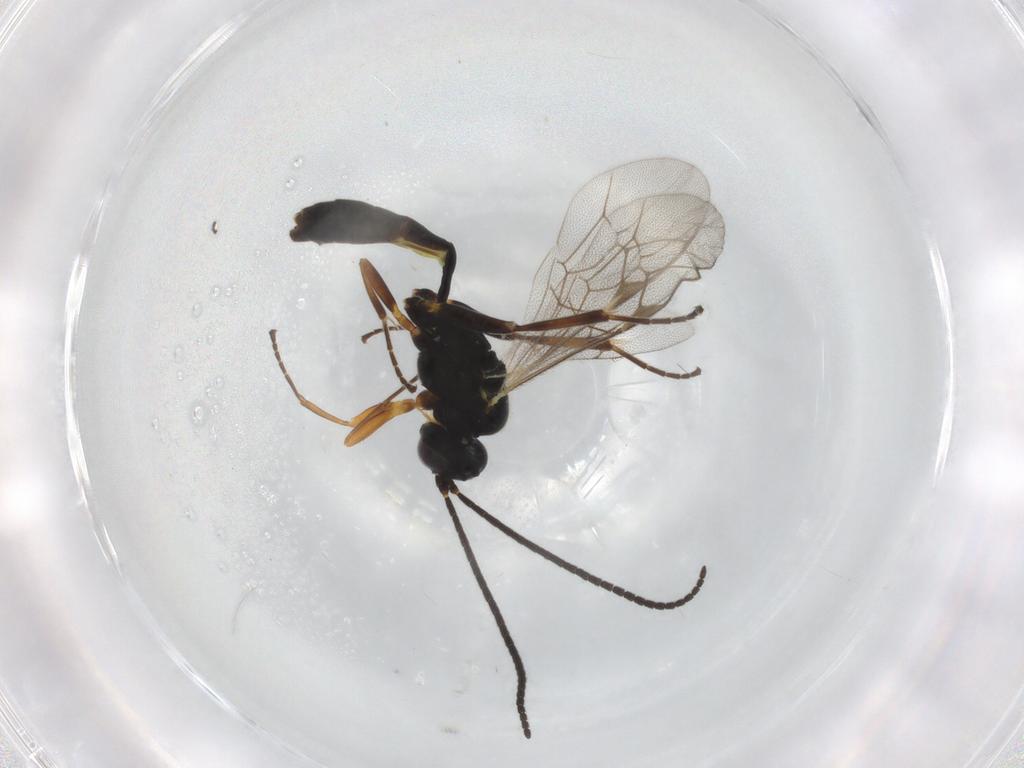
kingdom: Animalia
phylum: Arthropoda
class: Insecta
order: Hymenoptera
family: Ichneumonidae
